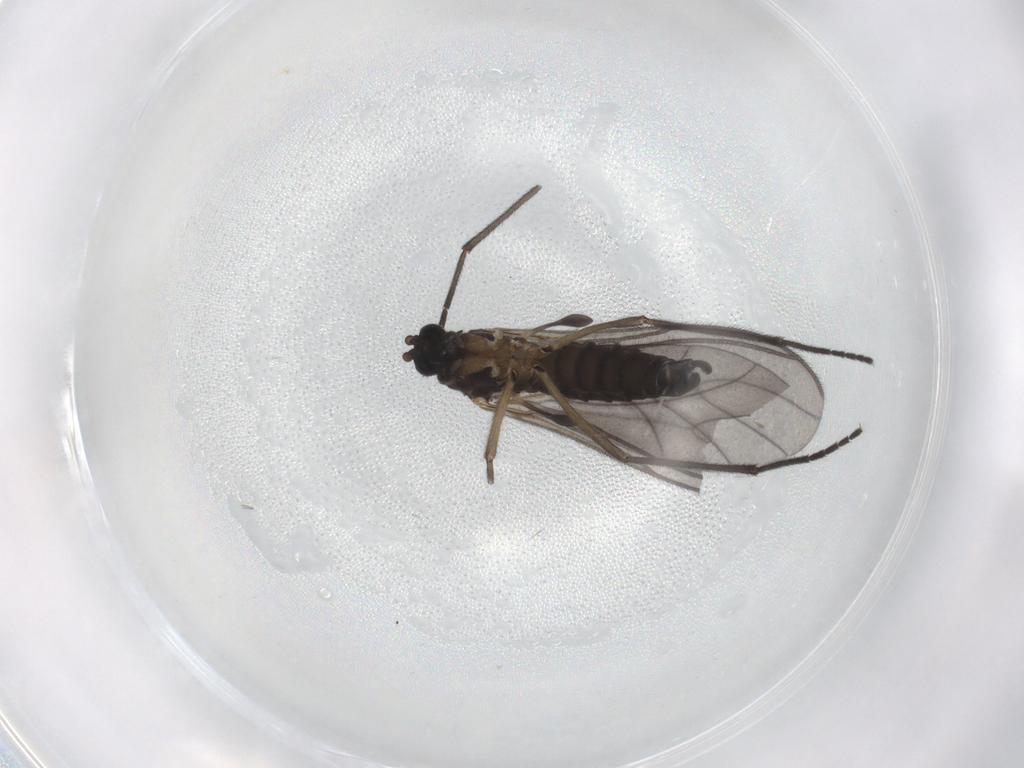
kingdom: Animalia
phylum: Arthropoda
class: Insecta
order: Diptera
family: Sciaridae
